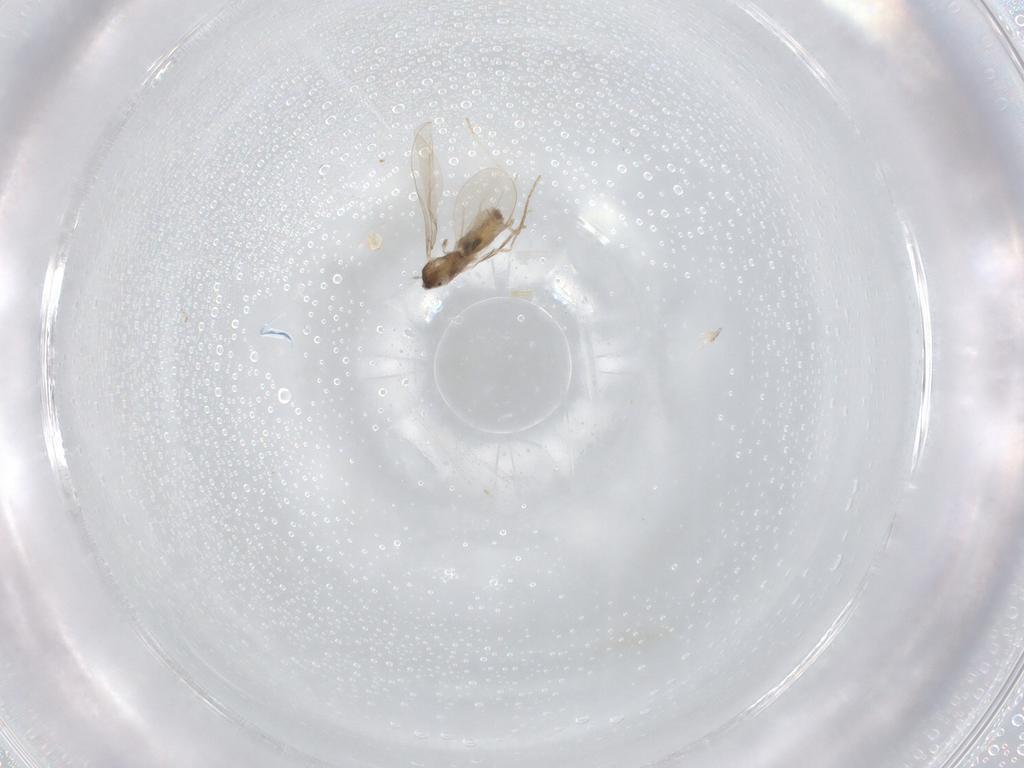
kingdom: Animalia
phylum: Arthropoda
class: Insecta
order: Diptera
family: Cecidomyiidae
